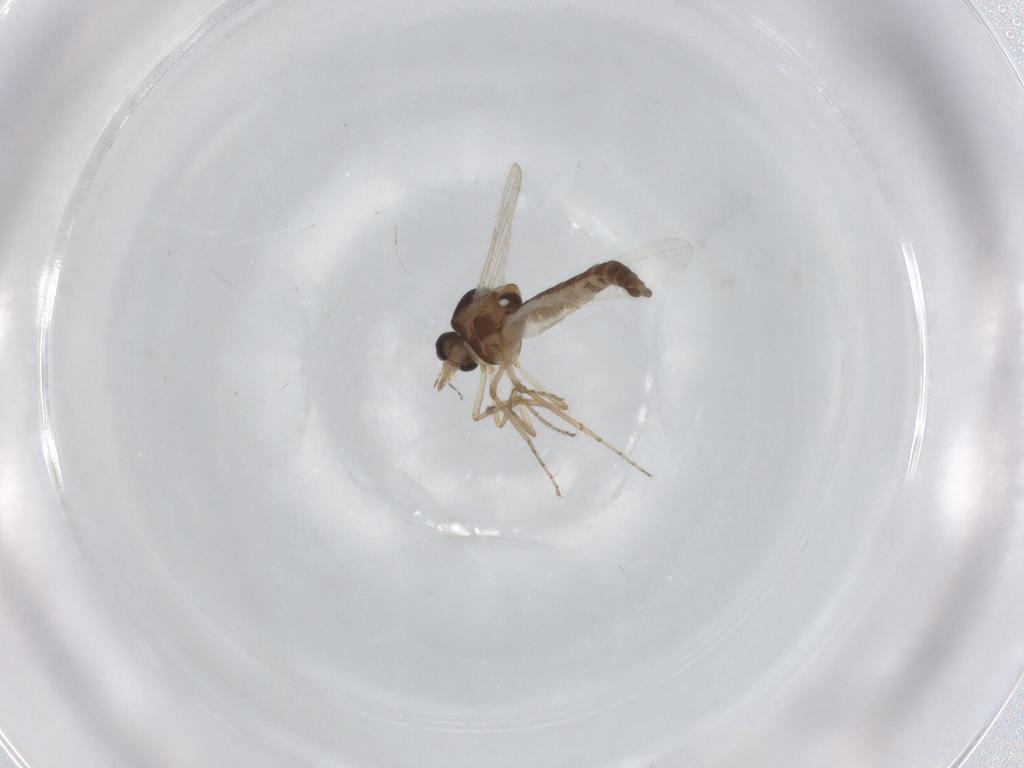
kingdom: Animalia
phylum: Arthropoda
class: Insecta
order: Diptera
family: Ceratopogonidae
